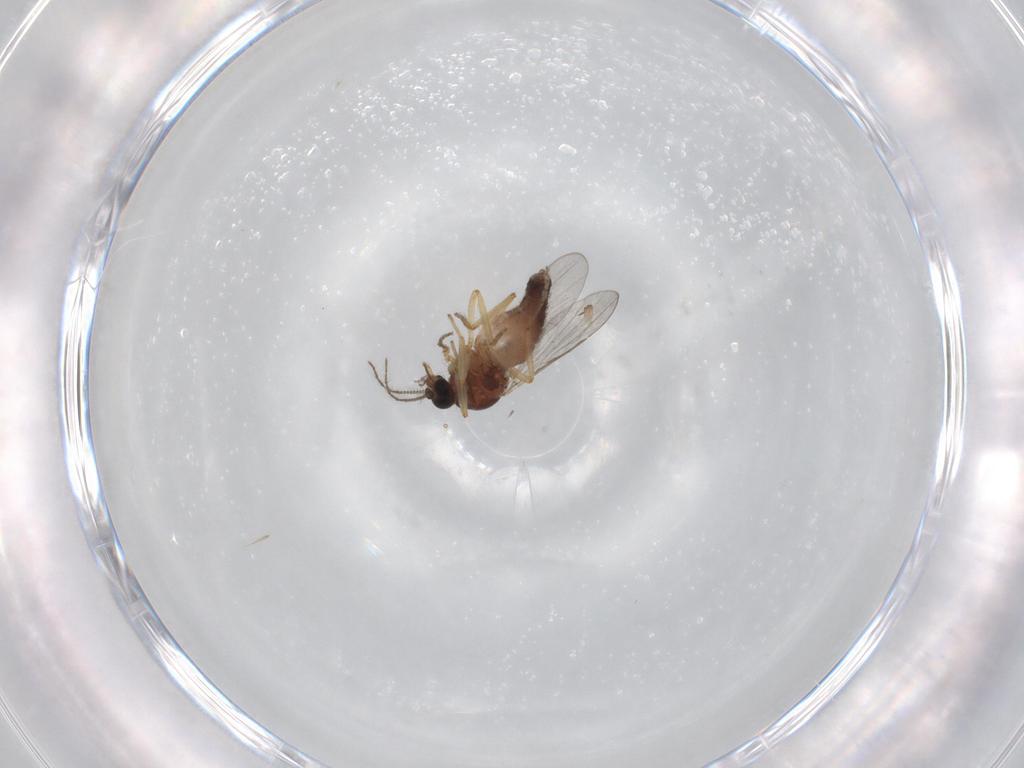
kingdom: Animalia
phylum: Arthropoda
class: Insecta
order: Diptera
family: Ceratopogonidae
